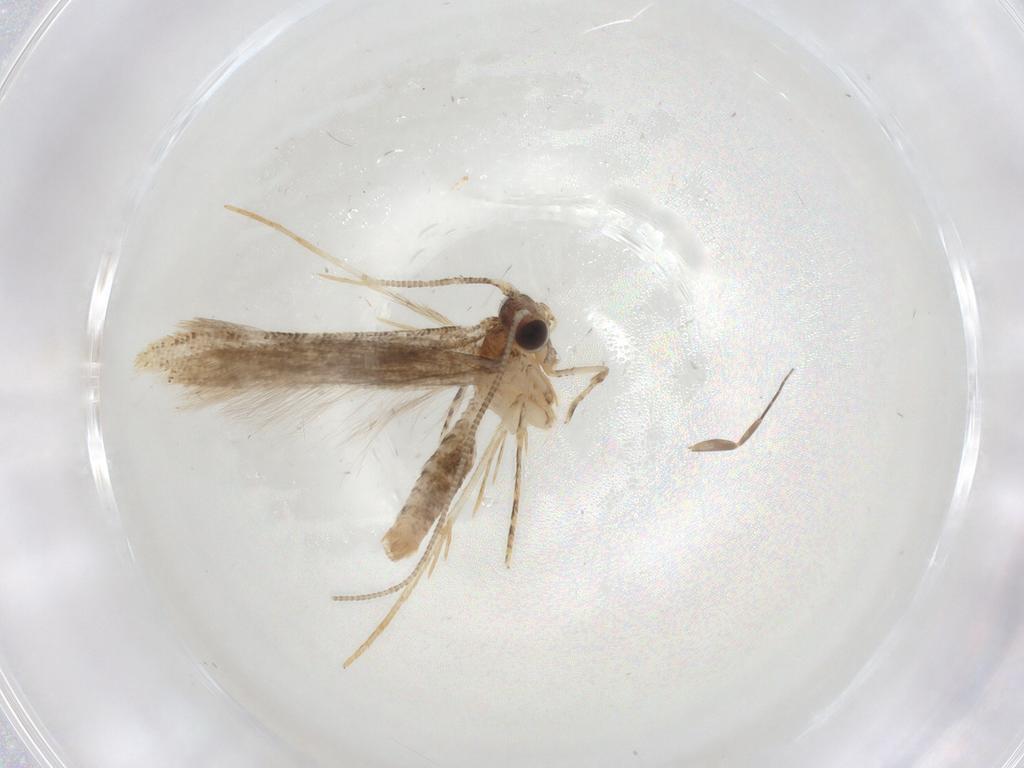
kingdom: Animalia
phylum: Arthropoda
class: Insecta
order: Lepidoptera
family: Tineidae
